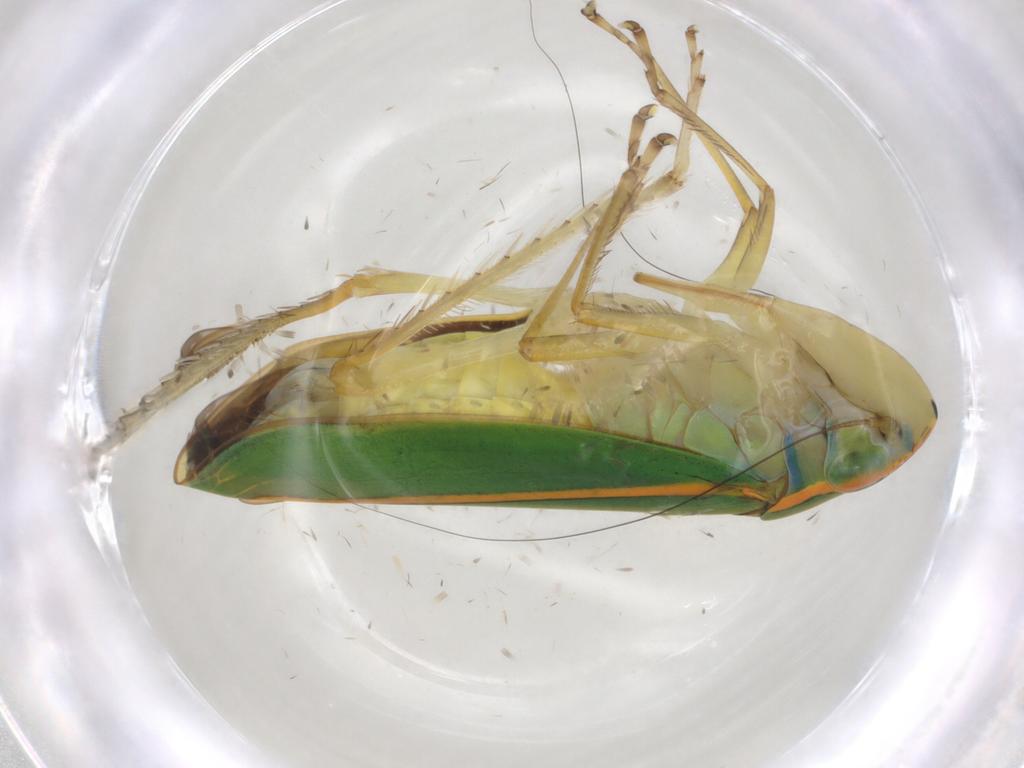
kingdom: Animalia
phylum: Arthropoda
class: Insecta
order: Hemiptera
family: Cicadellidae
